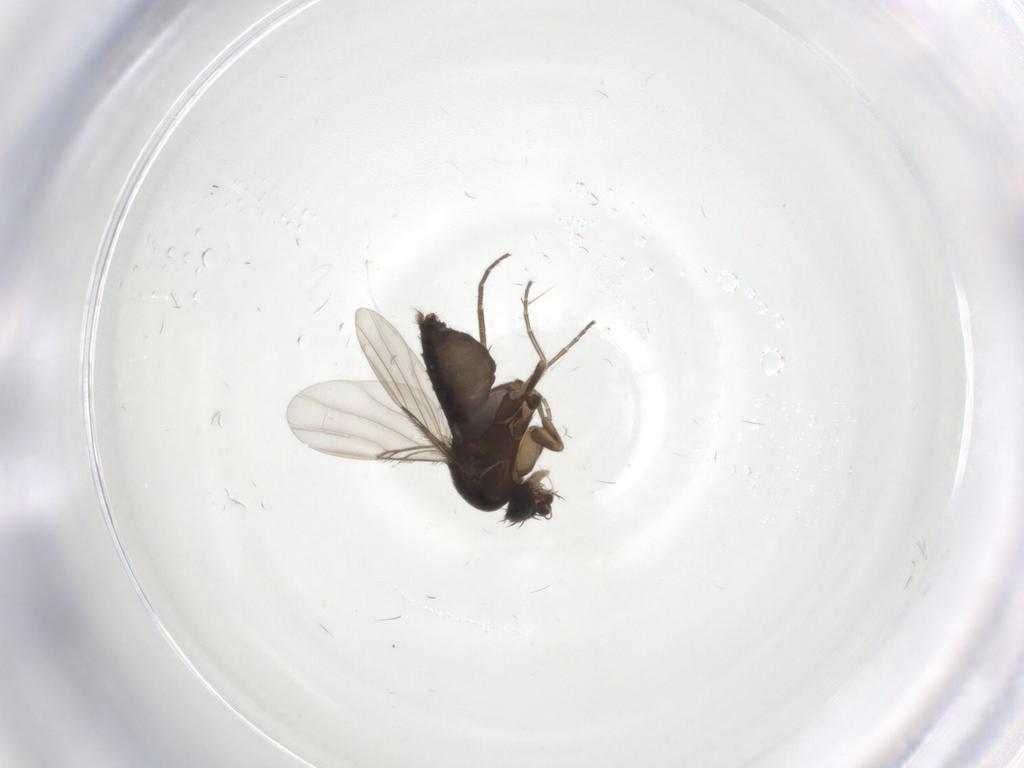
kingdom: Animalia
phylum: Arthropoda
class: Insecta
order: Diptera
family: Phoridae
